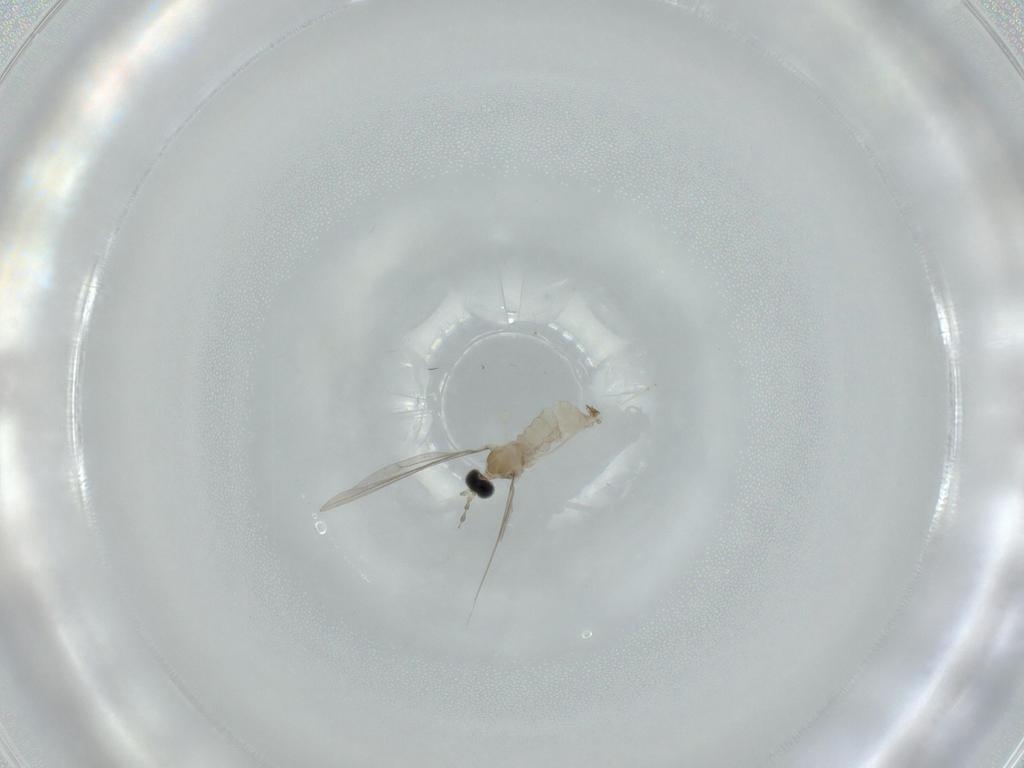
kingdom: Animalia
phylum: Arthropoda
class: Insecta
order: Diptera
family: Cecidomyiidae
